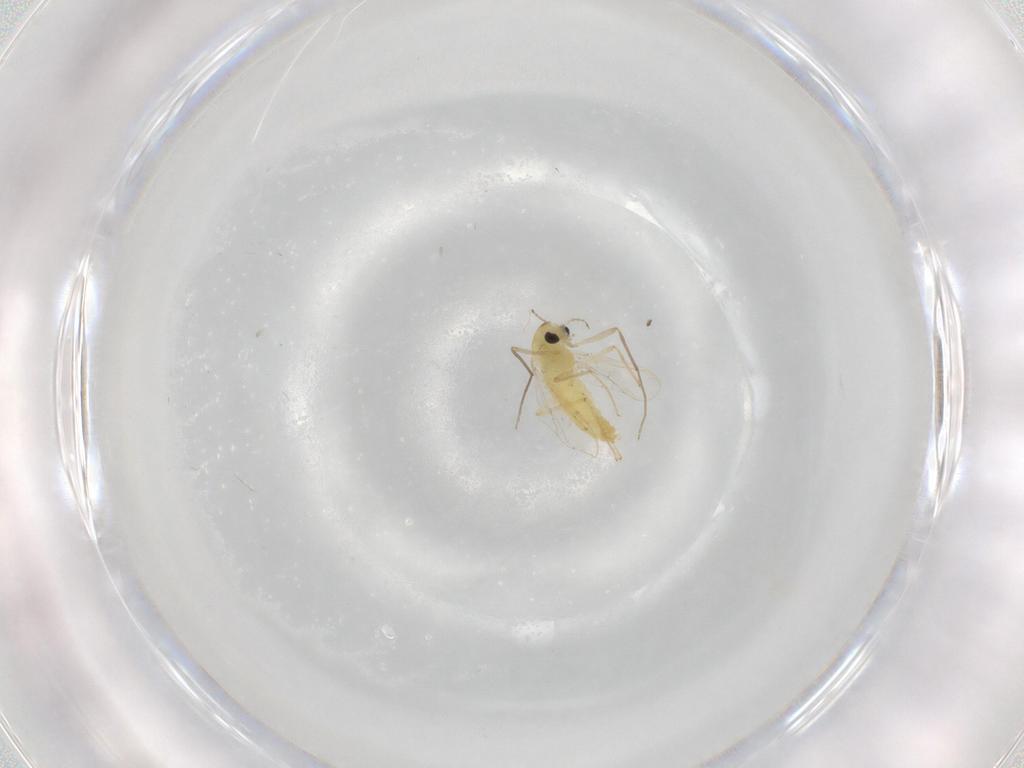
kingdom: Animalia
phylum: Arthropoda
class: Insecta
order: Diptera
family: Chironomidae
